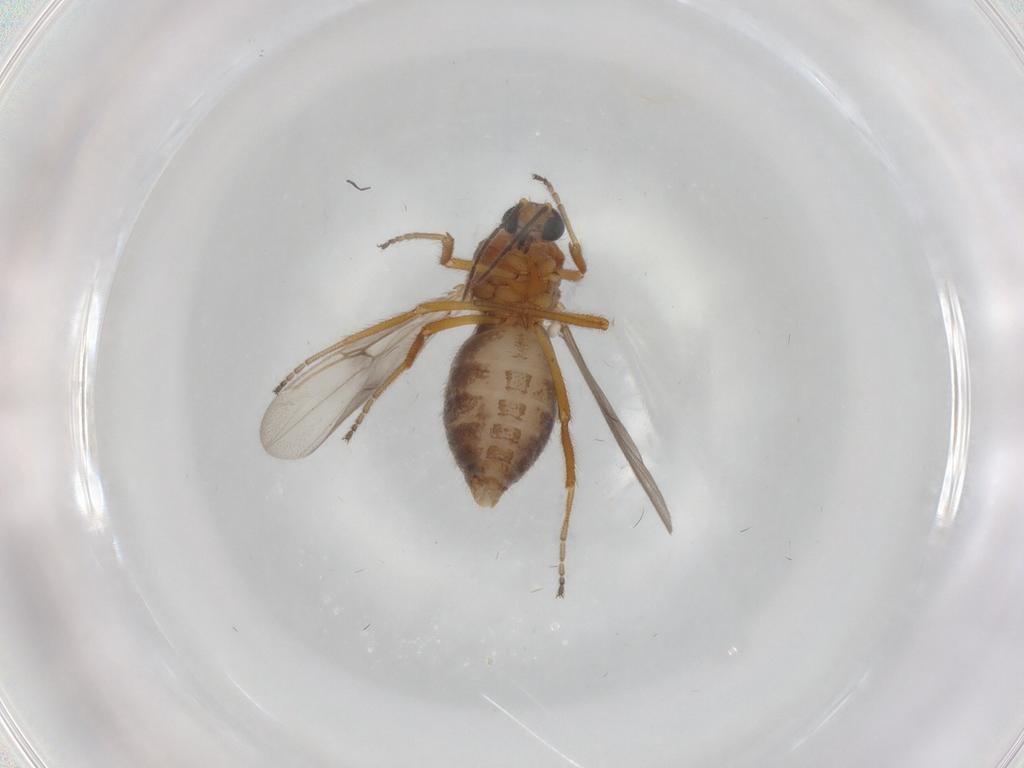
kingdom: Animalia
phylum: Arthropoda
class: Insecta
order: Diptera
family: Ceratopogonidae
